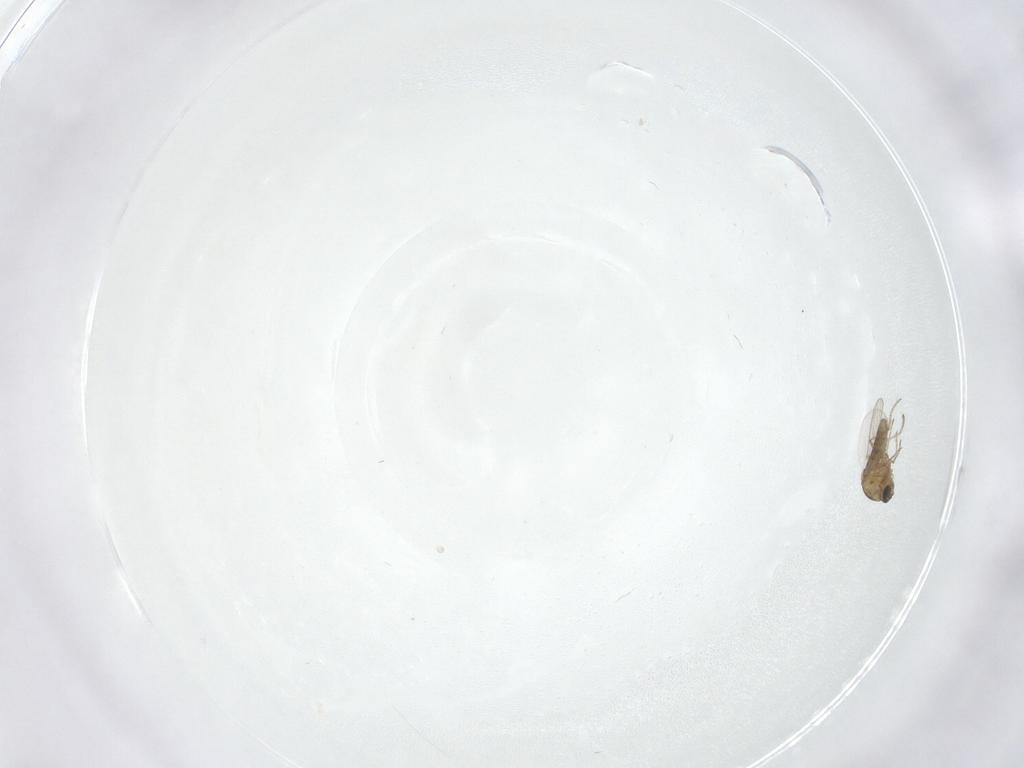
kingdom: Animalia
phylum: Arthropoda
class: Insecta
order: Diptera
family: Ceratopogonidae
